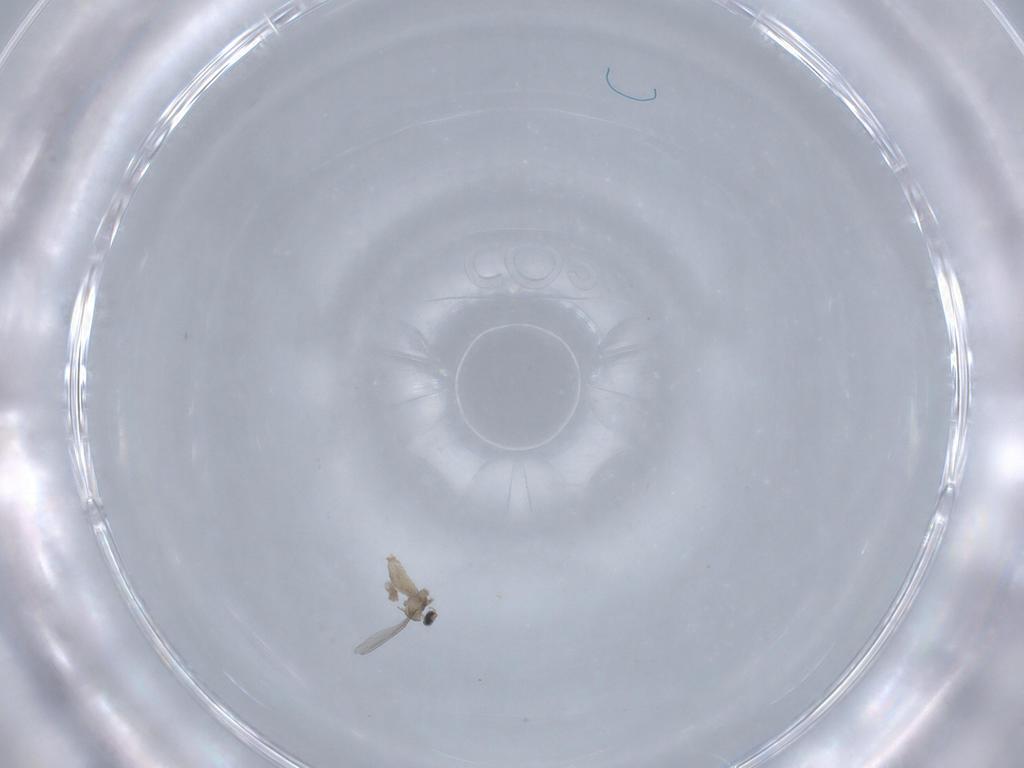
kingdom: Animalia
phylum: Arthropoda
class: Insecta
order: Diptera
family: Cecidomyiidae
